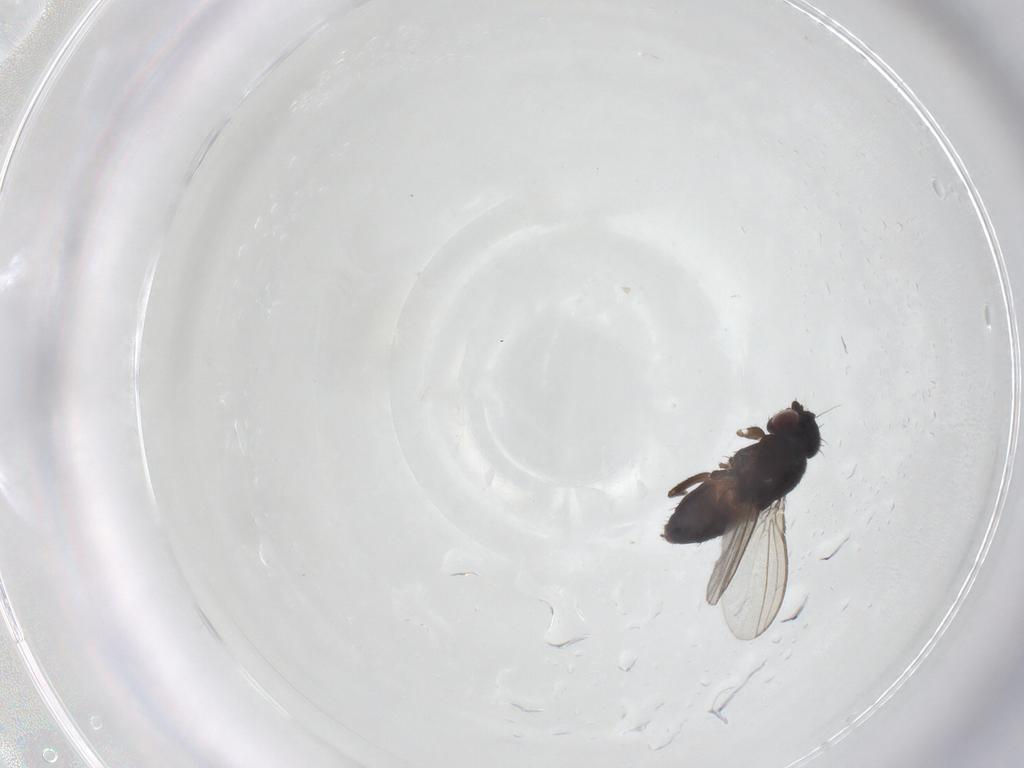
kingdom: Animalia
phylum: Arthropoda
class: Insecta
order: Diptera
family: Milichiidae
